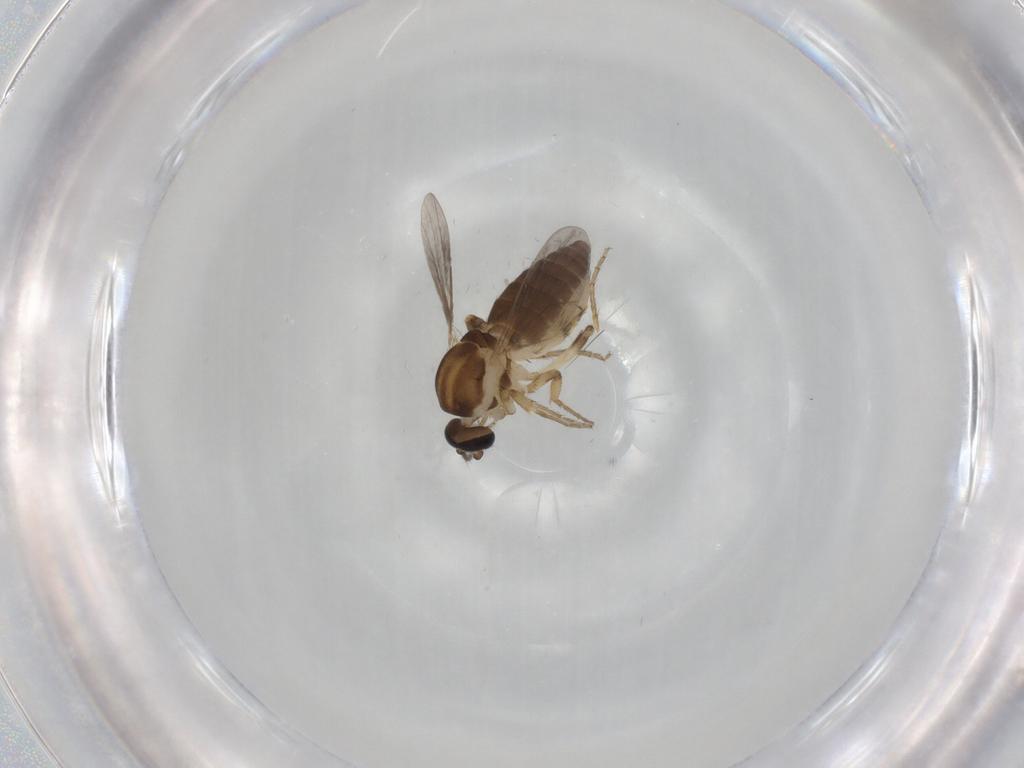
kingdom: Animalia
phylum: Arthropoda
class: Insecta
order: Diptera
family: Ceratopogonidae
